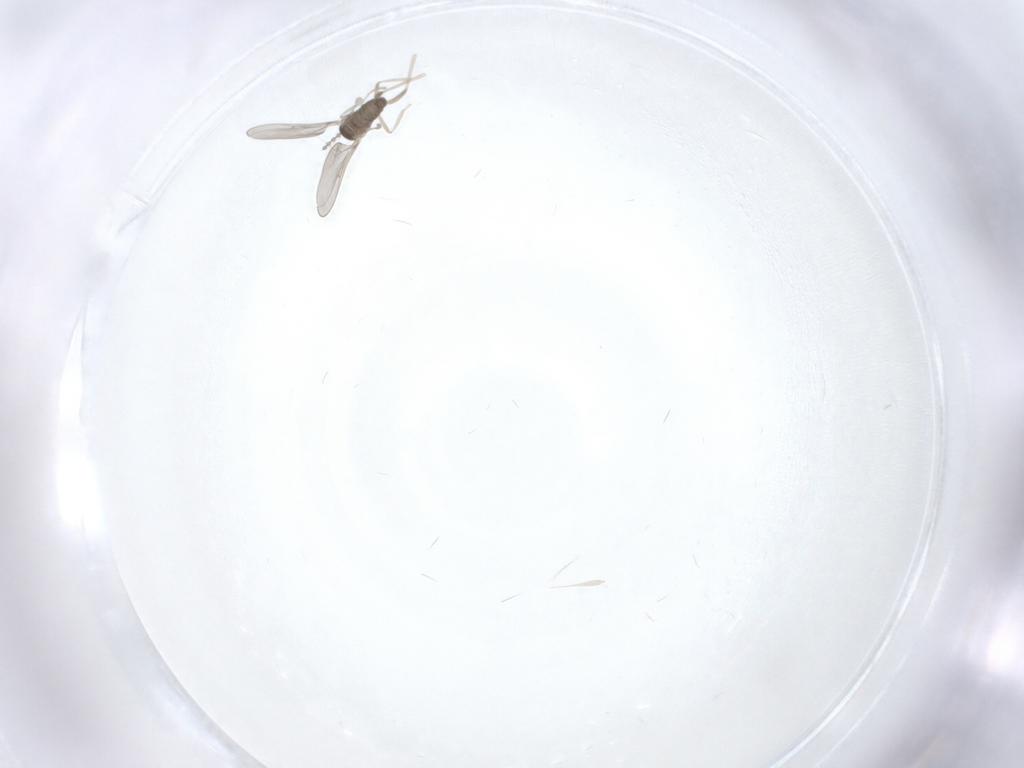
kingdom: Animalia
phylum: Arthropoda
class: Insecta
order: Diptera
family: Cecidomyiidae
